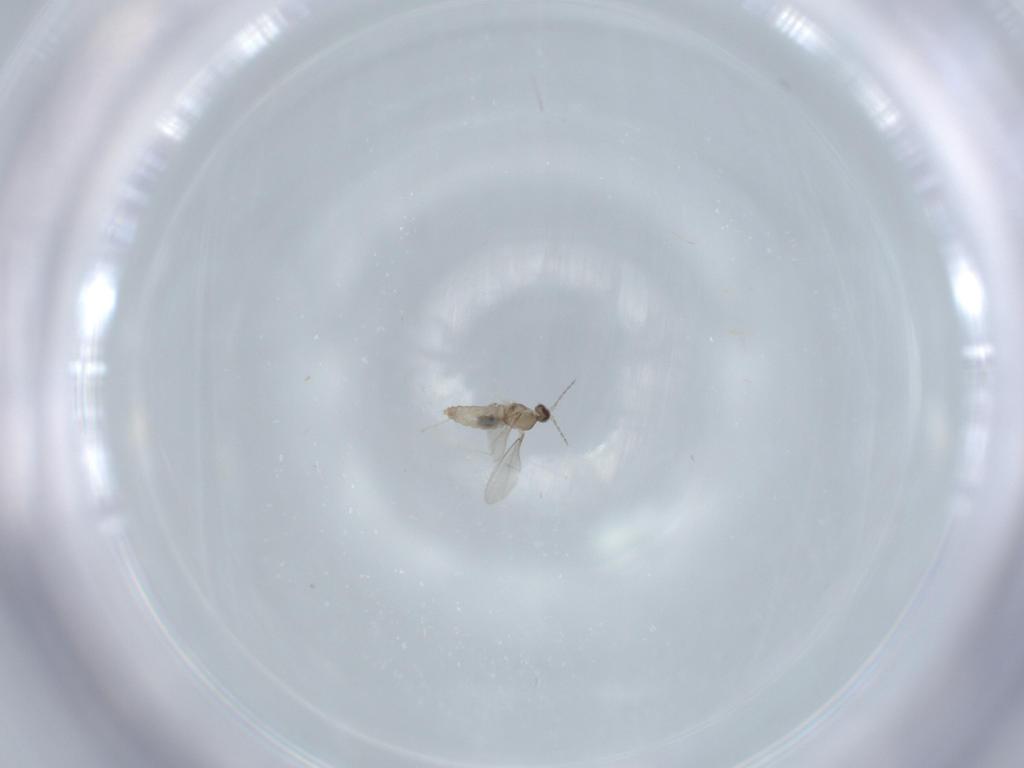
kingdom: Animalia
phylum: Arthropoda
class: Insecta
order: Diptera
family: Cecidomyiidae
